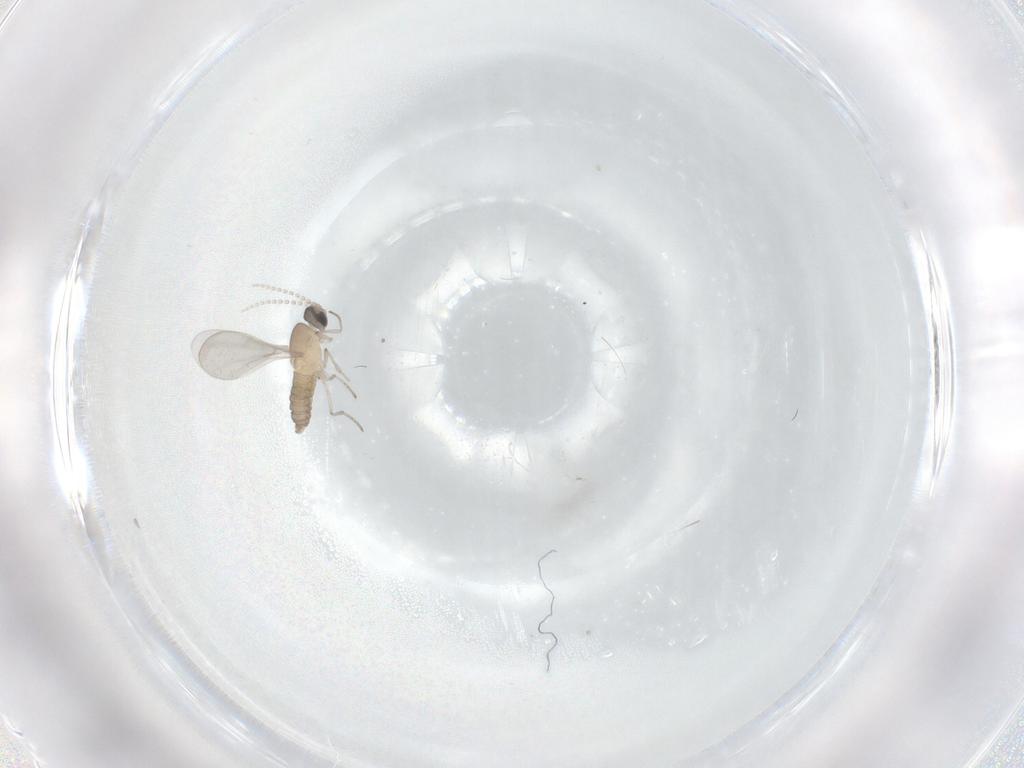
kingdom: Animalia
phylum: Arthropoda
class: Insecta
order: Diptera
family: Cecidomyiidae
